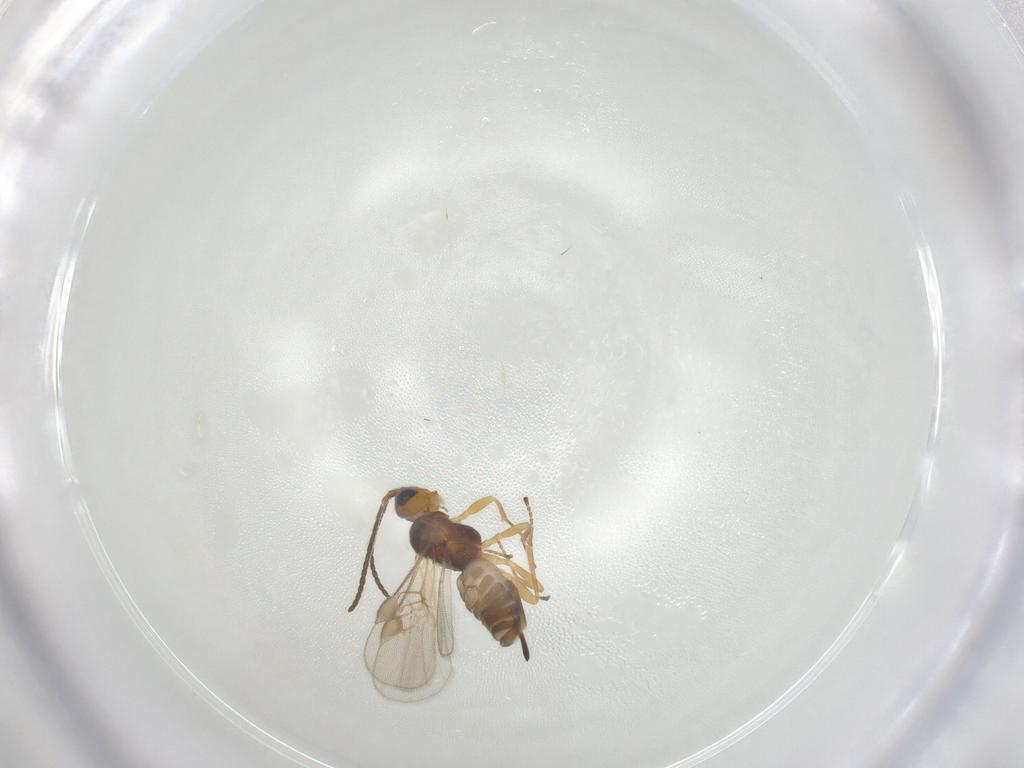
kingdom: Animalia
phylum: Arthropoda
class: Insecta
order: Hymenoptera
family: Braconidae
